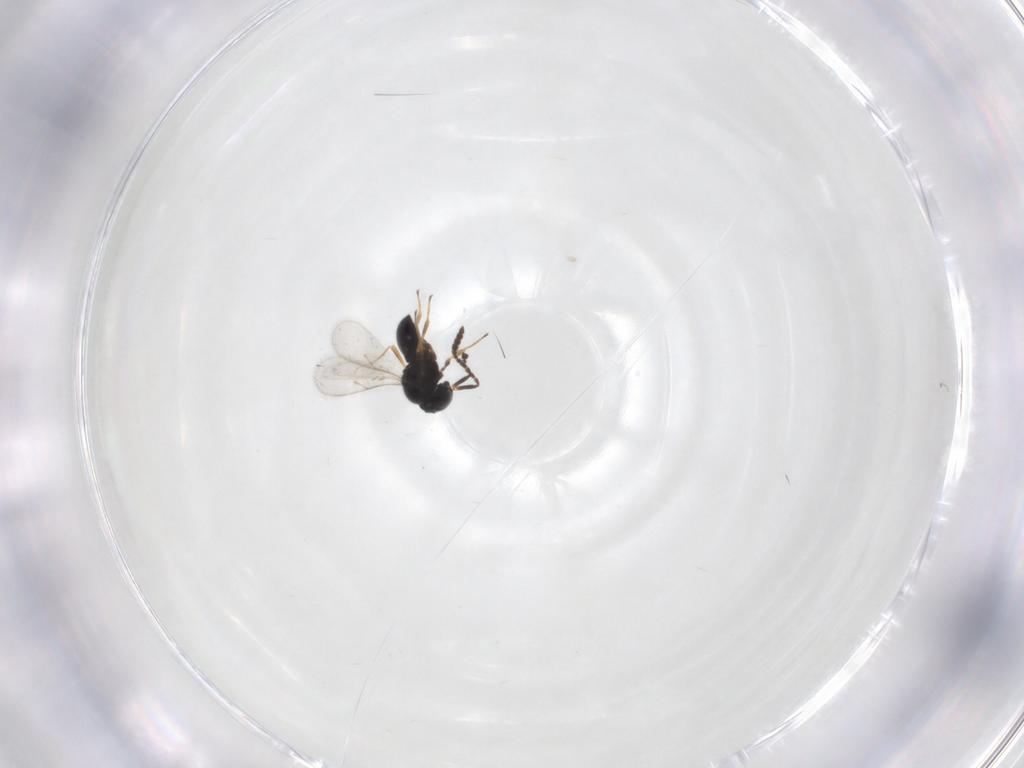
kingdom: Animalia
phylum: Arthropoda
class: Insecta
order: Hymenoptera
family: Scelionidae
